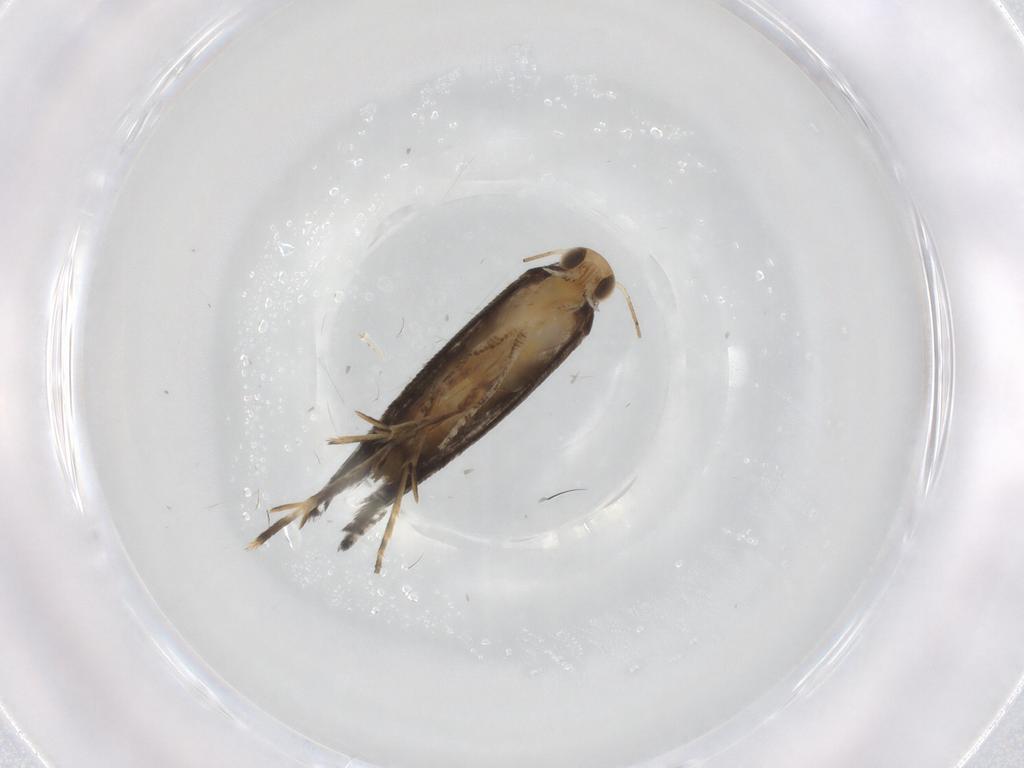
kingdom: Animalia
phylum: Arthropoda
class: Insecta
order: Lepidoptera
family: Glyphipterigidae
